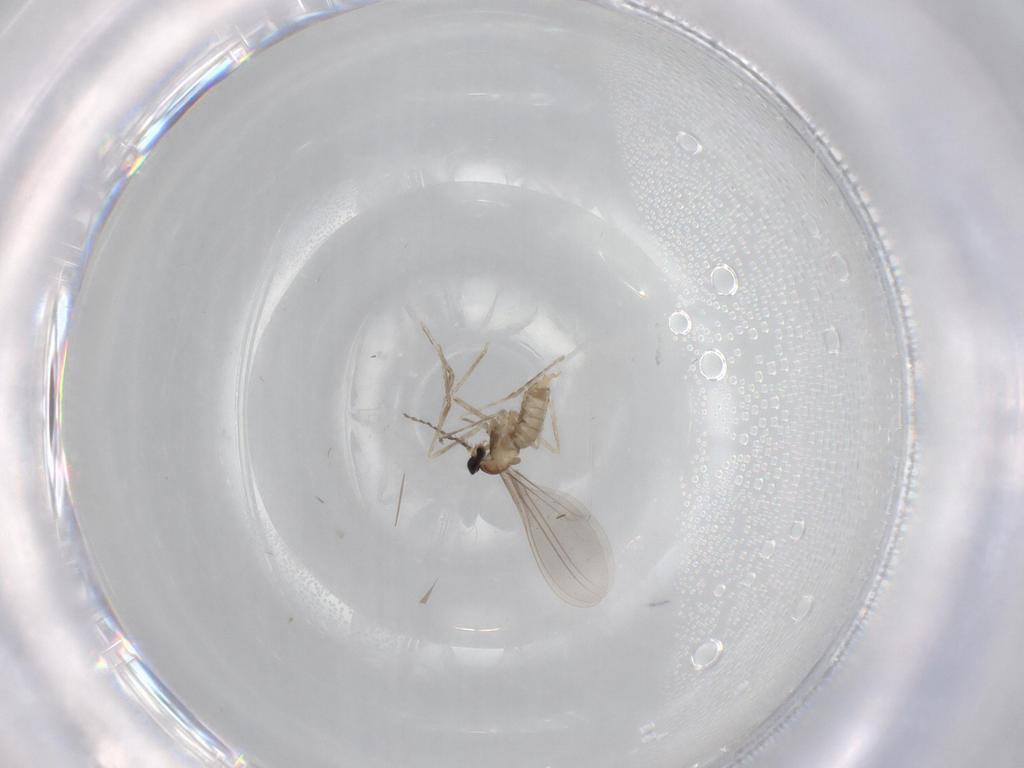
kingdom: Animalia
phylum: Arthropoda
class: Insecta
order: Diptera
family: Cecidomyiidae
